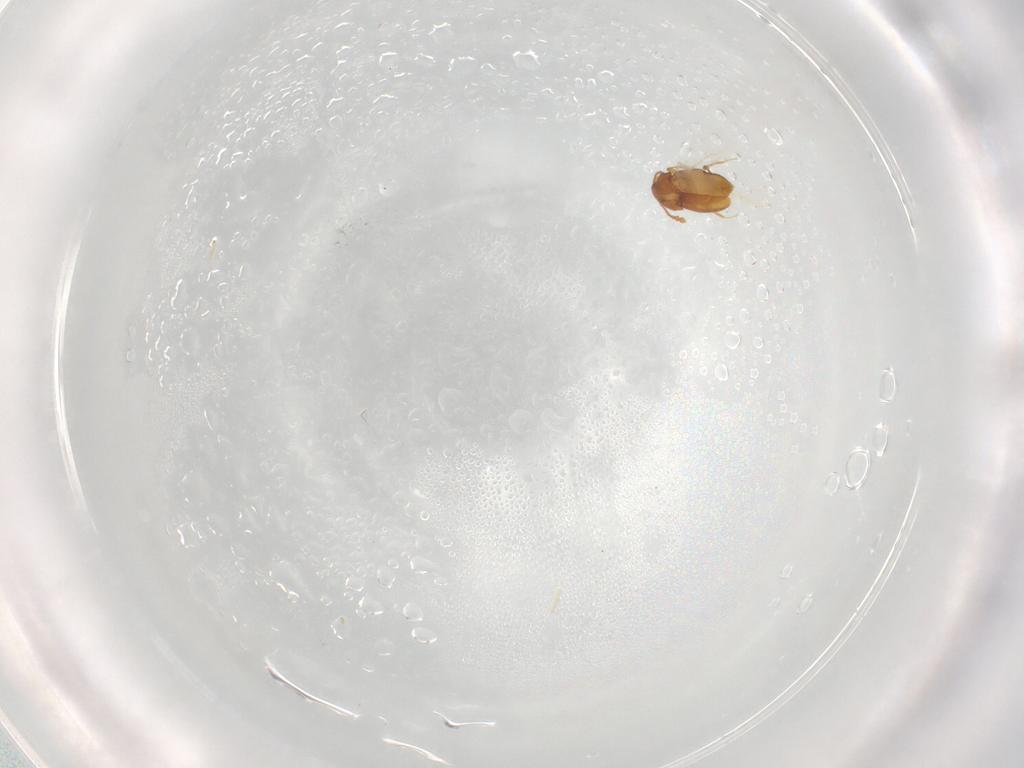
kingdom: Animalia
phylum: Arthropoda
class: Insecta
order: Coleoptera
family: Staphylinidae
